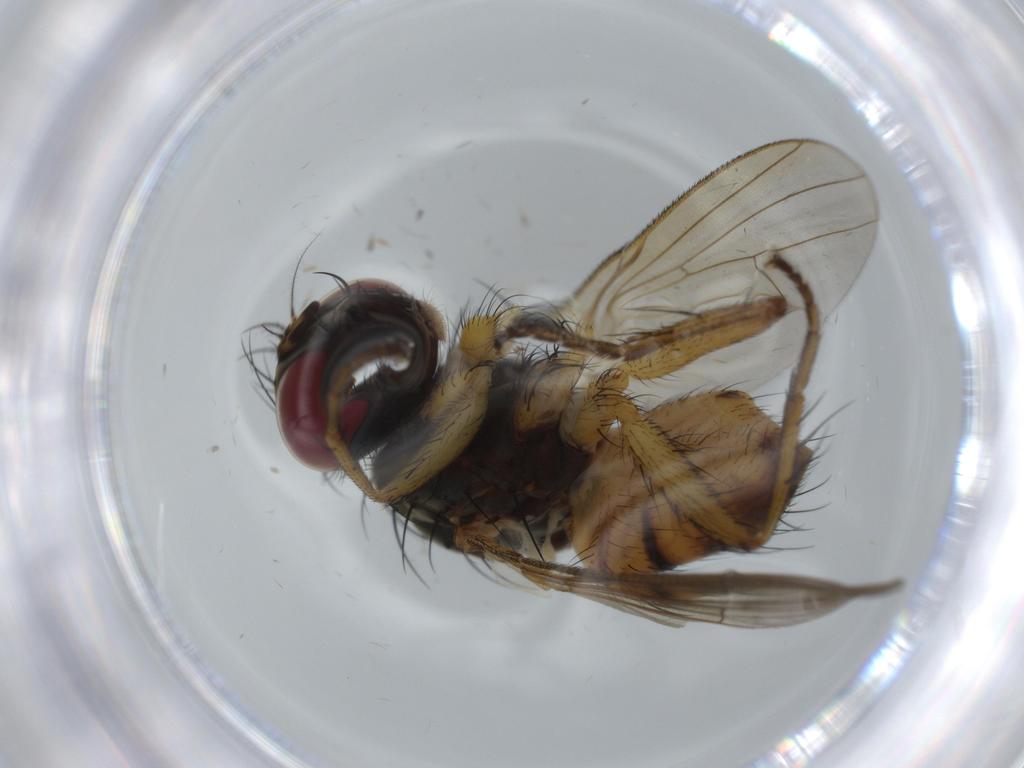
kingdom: Animalia
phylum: Arthropoda
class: Insecta
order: Diptera
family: Muscidae
